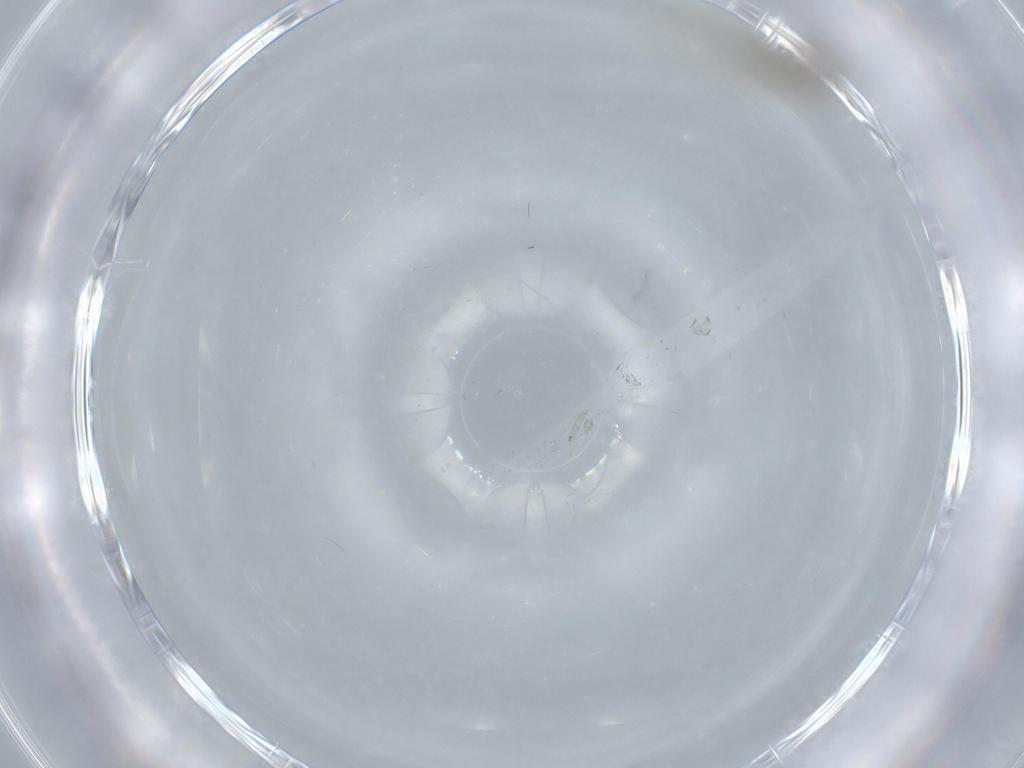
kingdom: Animalia
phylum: Arthropoda
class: Insecta
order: Diptera
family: Cecidomyiidae
